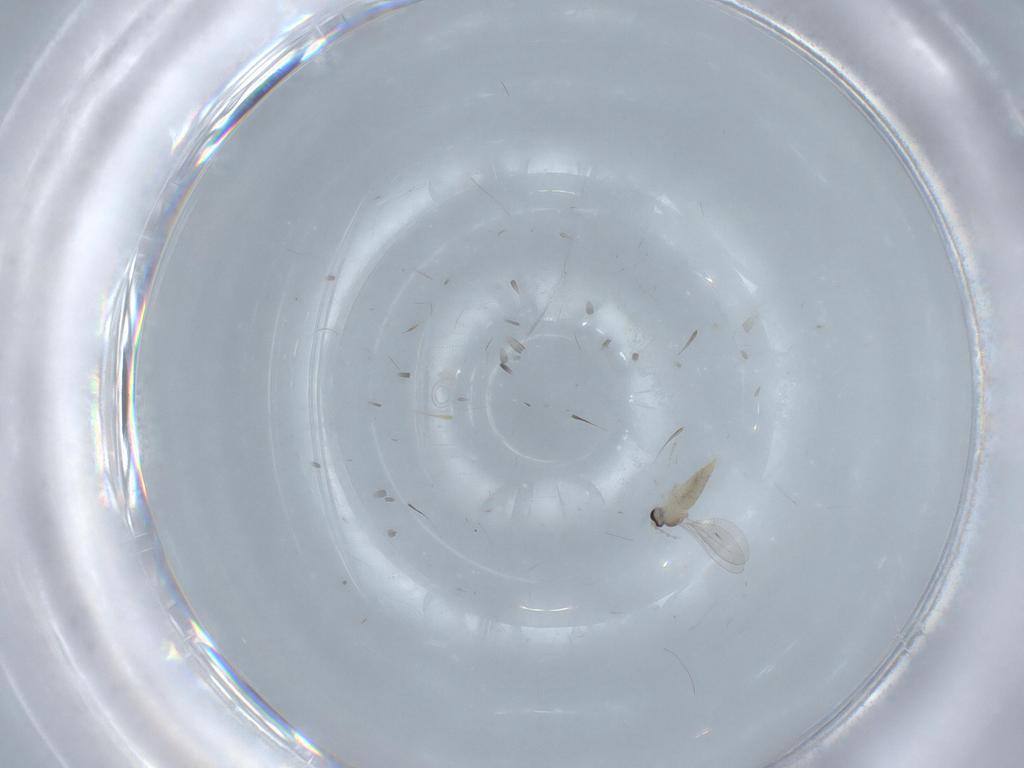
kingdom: Animalia
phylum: Arthropoda
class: Insecta
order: Diptera
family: Cecidomyiidae
